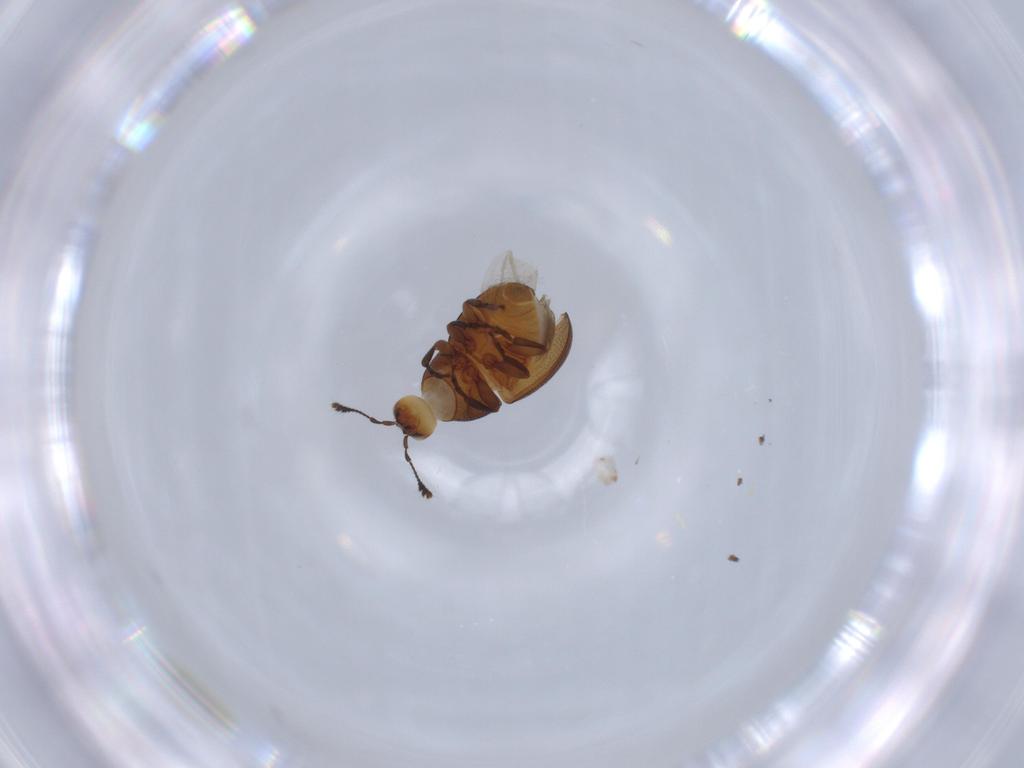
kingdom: Animalia
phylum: Arthropoda
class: Insecta
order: Coleoptera
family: Anthribidae
